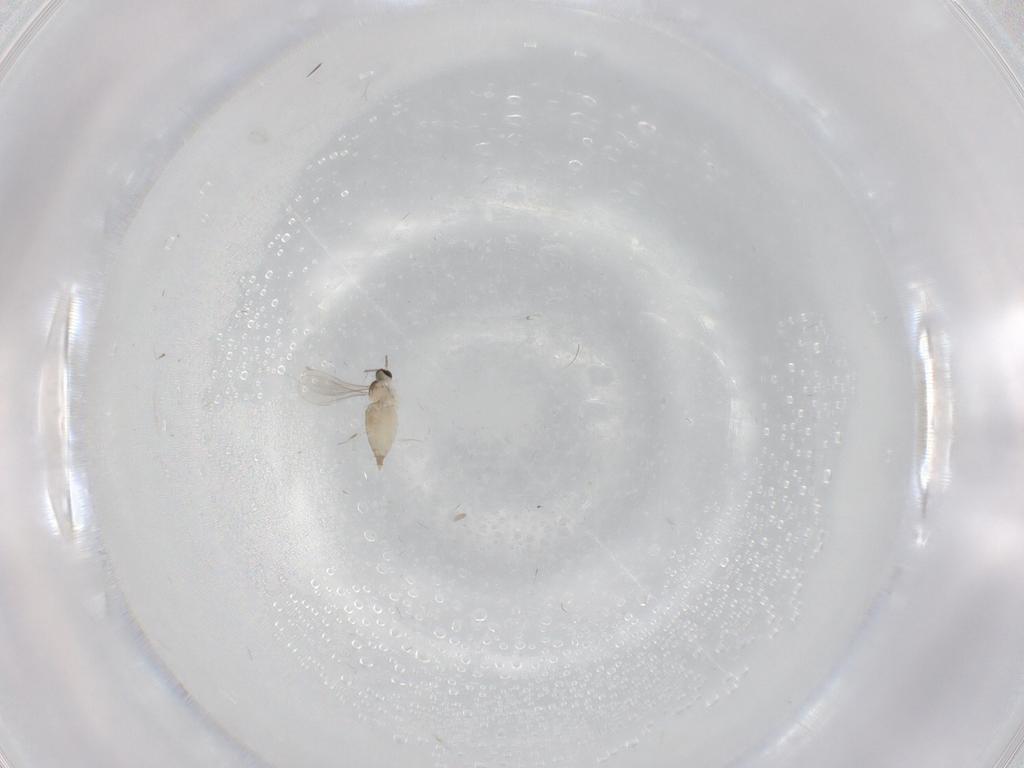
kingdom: Animalia
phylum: Arthropoda
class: Insecta
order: Diptera
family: Ceratopogonidae
